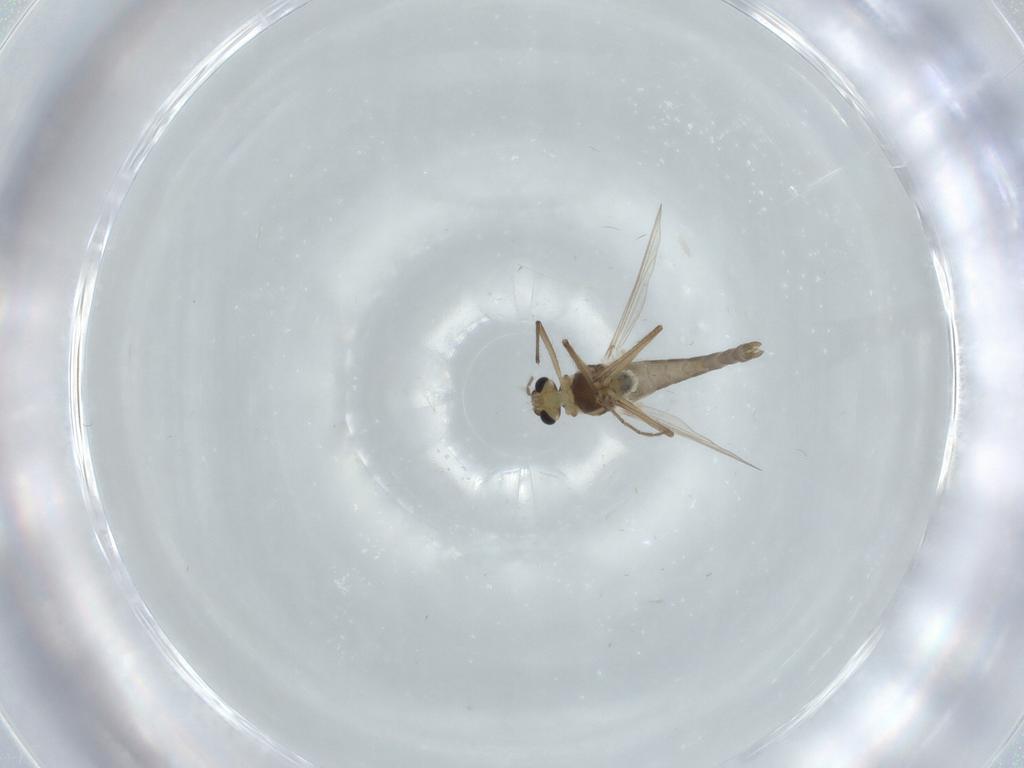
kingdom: Animalia
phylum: Arthropoda
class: Insecta
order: Diptera
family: Chironomidae
